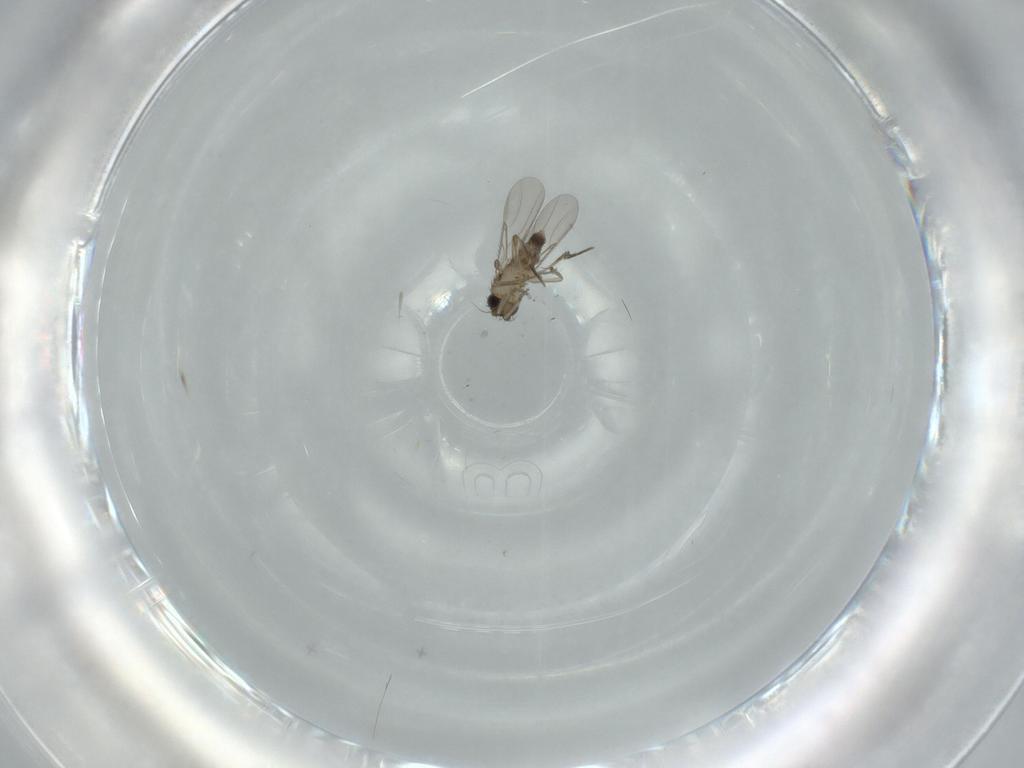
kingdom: Animalia
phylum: Arthropoda
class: Insecta
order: Diptera
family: Phoridae
